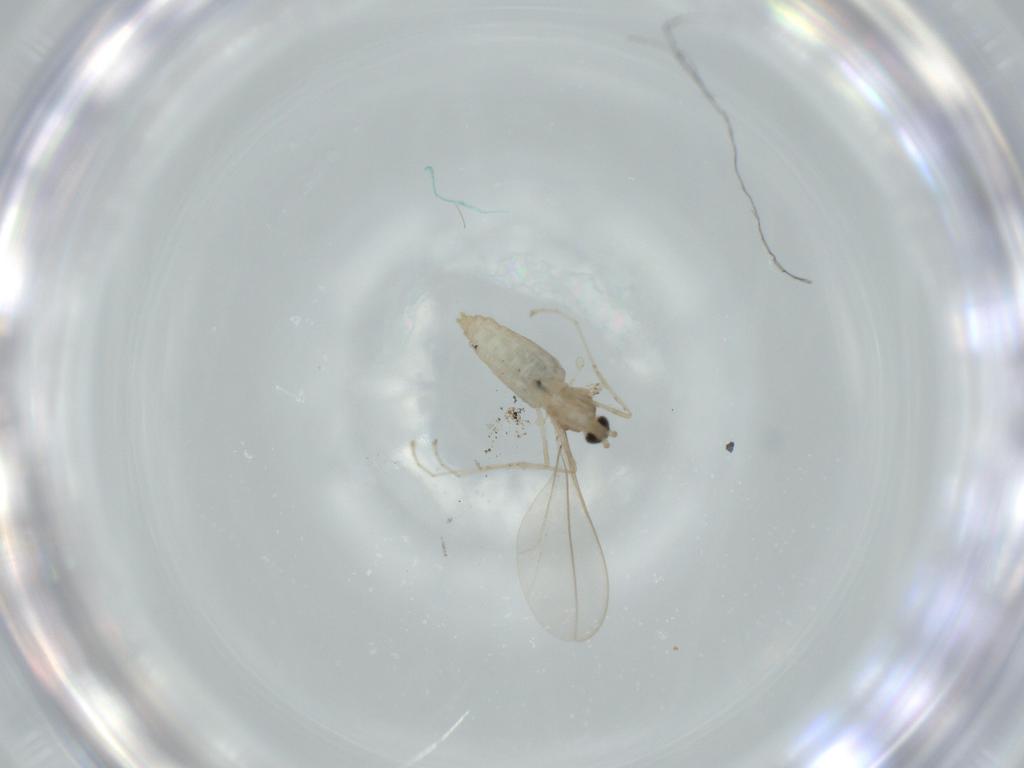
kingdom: Animalia
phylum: Arthropoda
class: Insecta
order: Diptera
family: Cecidomyiidae
